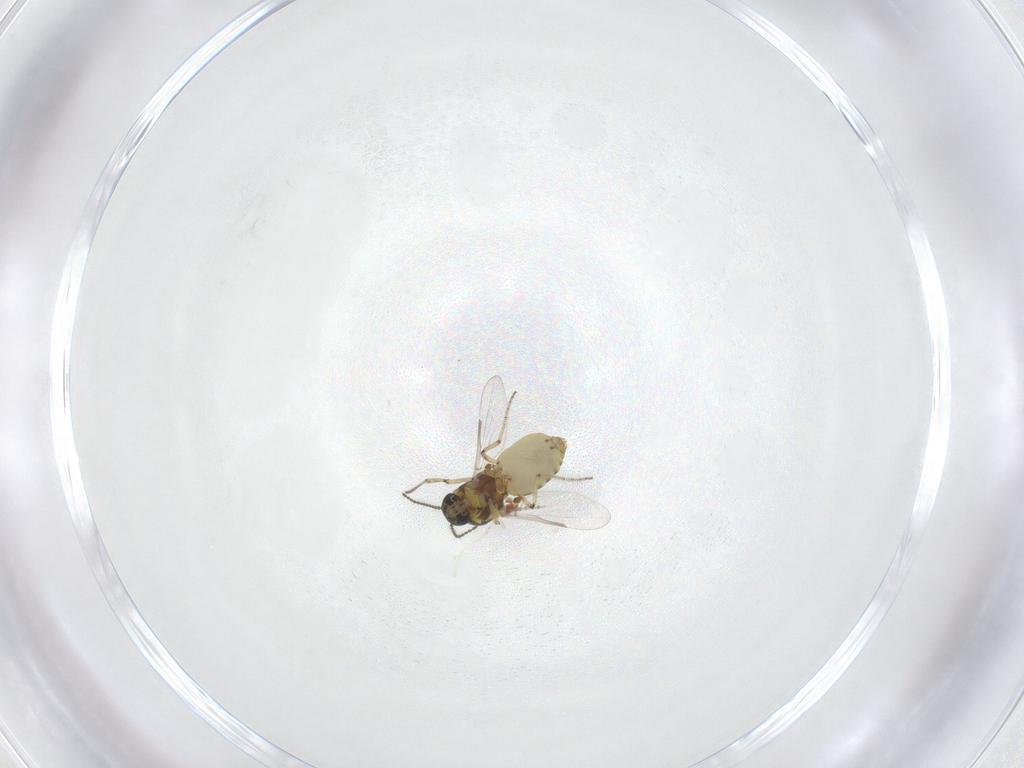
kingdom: Animalia
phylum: Arthropoda
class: Insecta
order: Diptera
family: Ceratopogonidae
